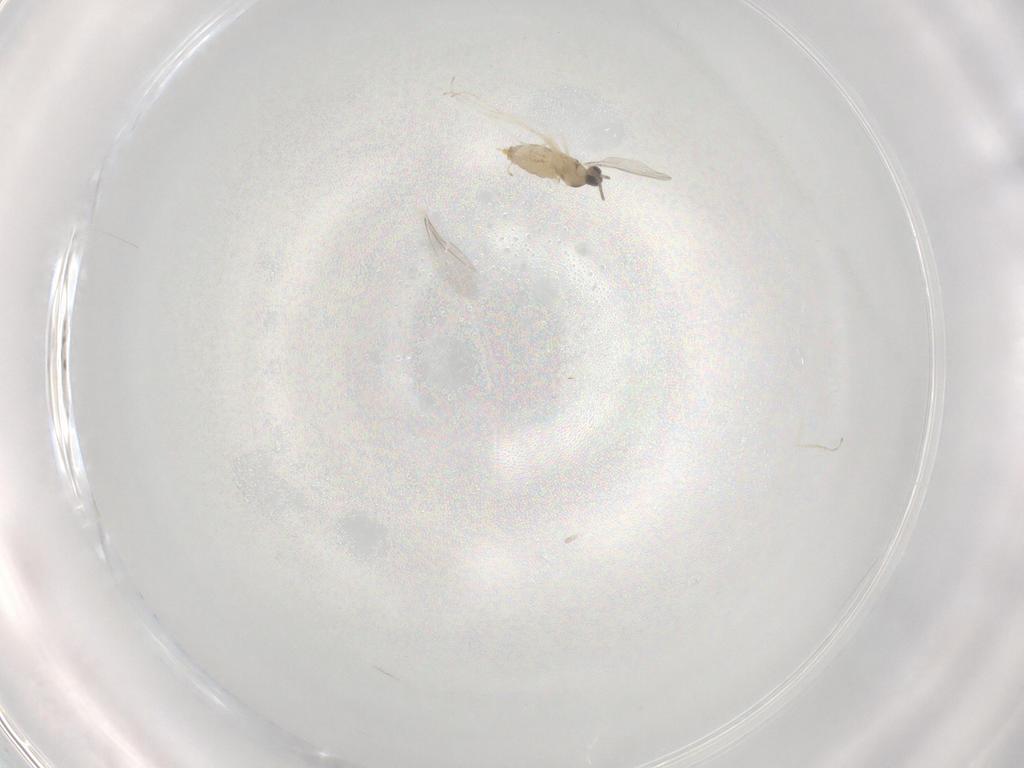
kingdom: Animalia
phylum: Arthropoda
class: Insecta
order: Diptera
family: Cecidomyiidae
